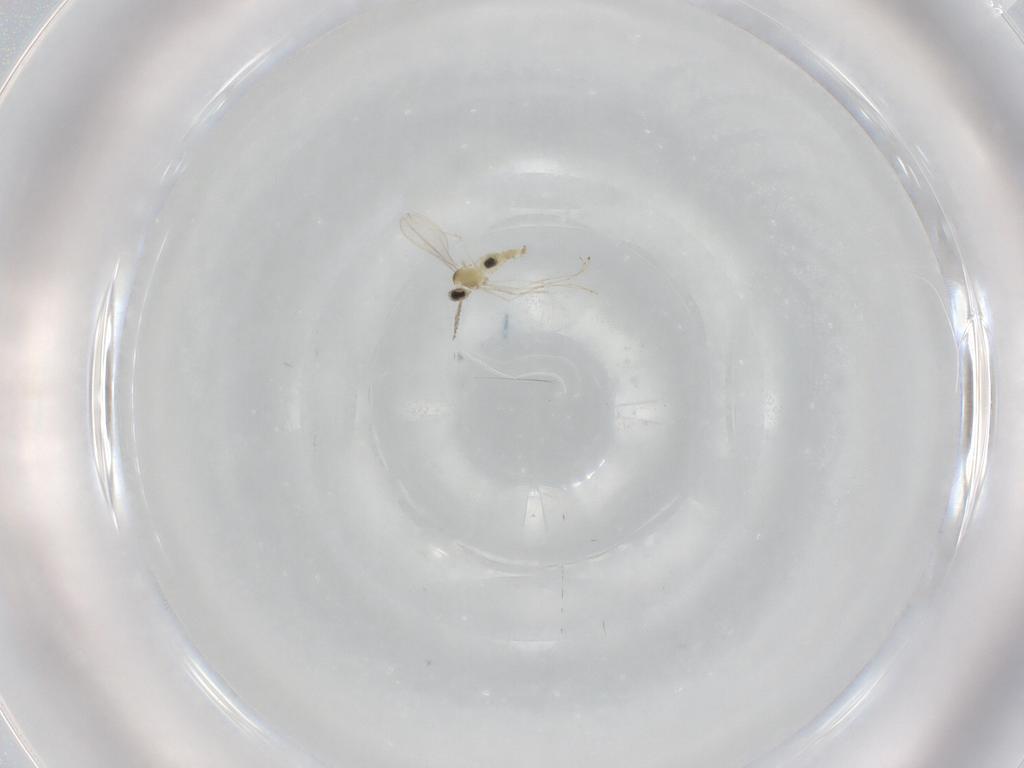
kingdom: Animalia
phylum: Arthropoda
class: Insecta
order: Diptera
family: Cecidomyiidae
